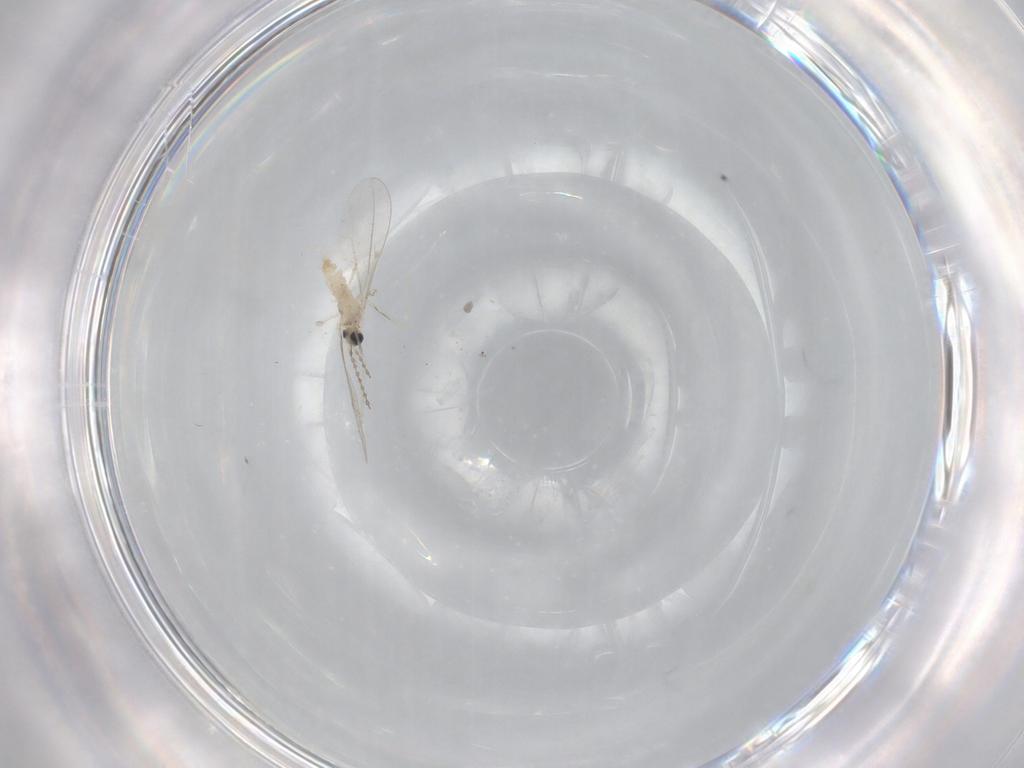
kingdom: Animalia
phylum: Arthropoda
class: Insecta
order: Diptera
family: Cecidomyiidae
